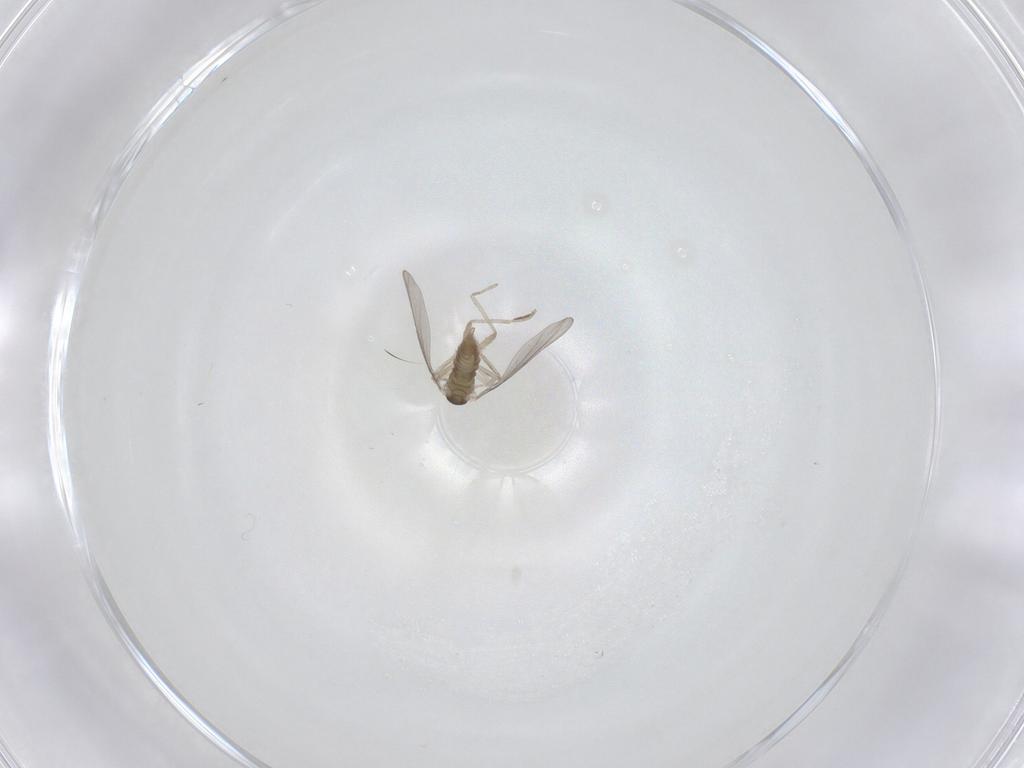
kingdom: Animalia
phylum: Arthropoda
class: Insecta
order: Diptera
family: Cecidomyiidae
